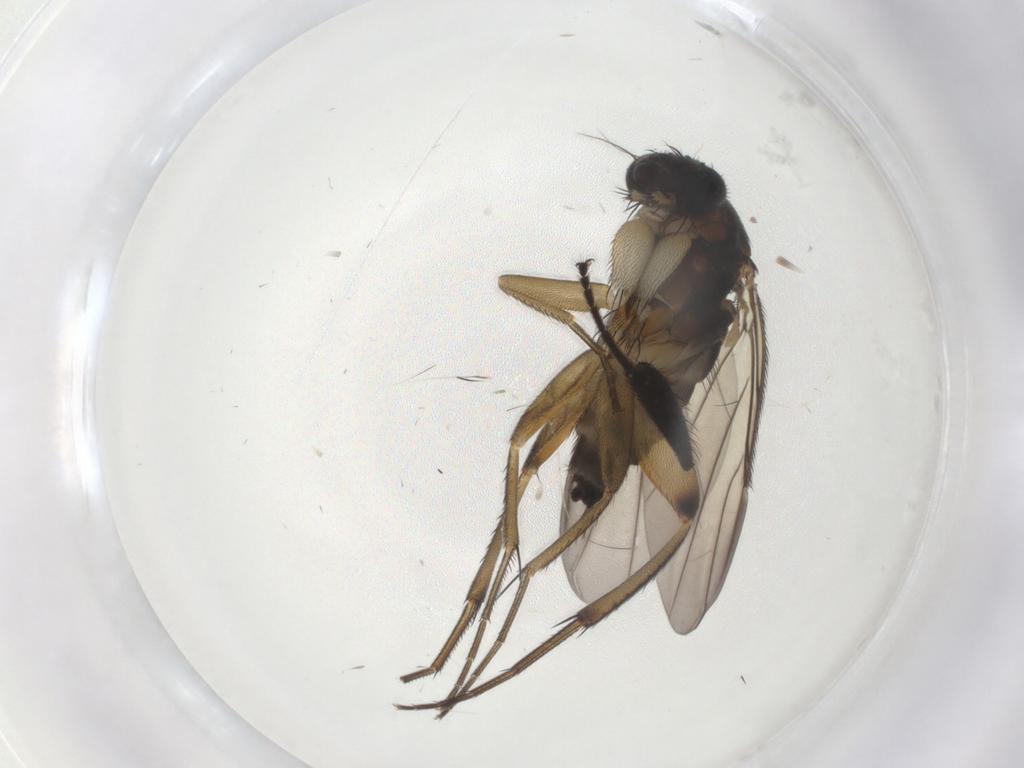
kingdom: Animalia
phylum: Arthropoda
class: Insecta
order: Diptera
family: Phoridae
